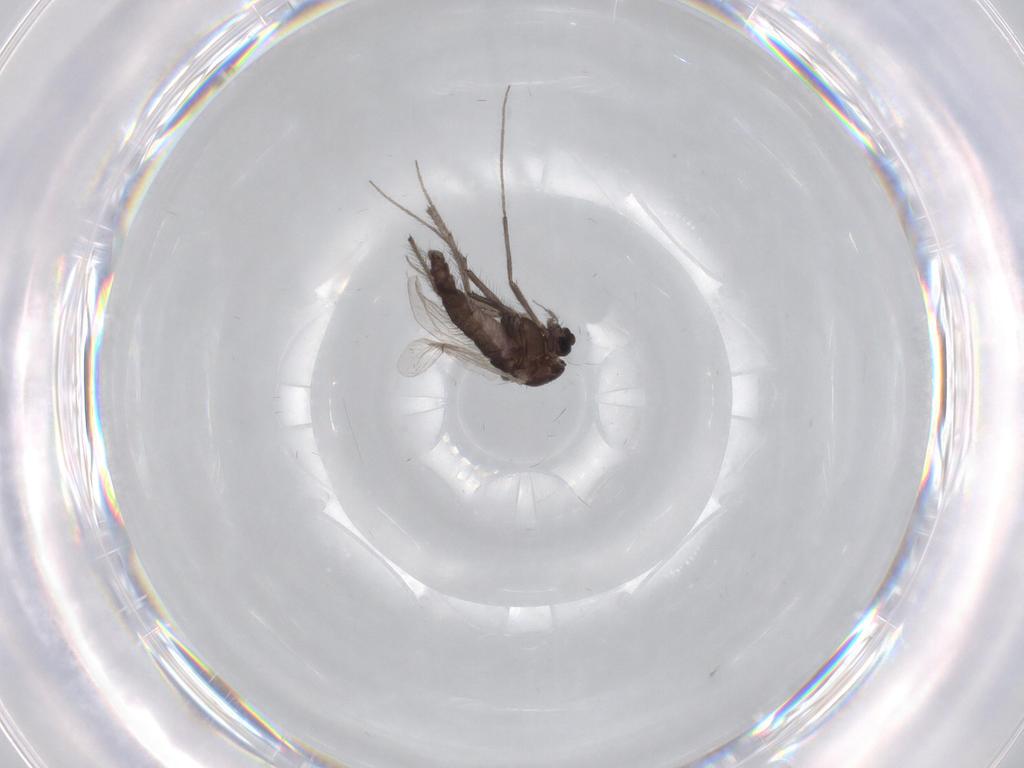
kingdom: Animalia
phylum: Arthropoda
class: Insecta
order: Diptera
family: Chironomidae
